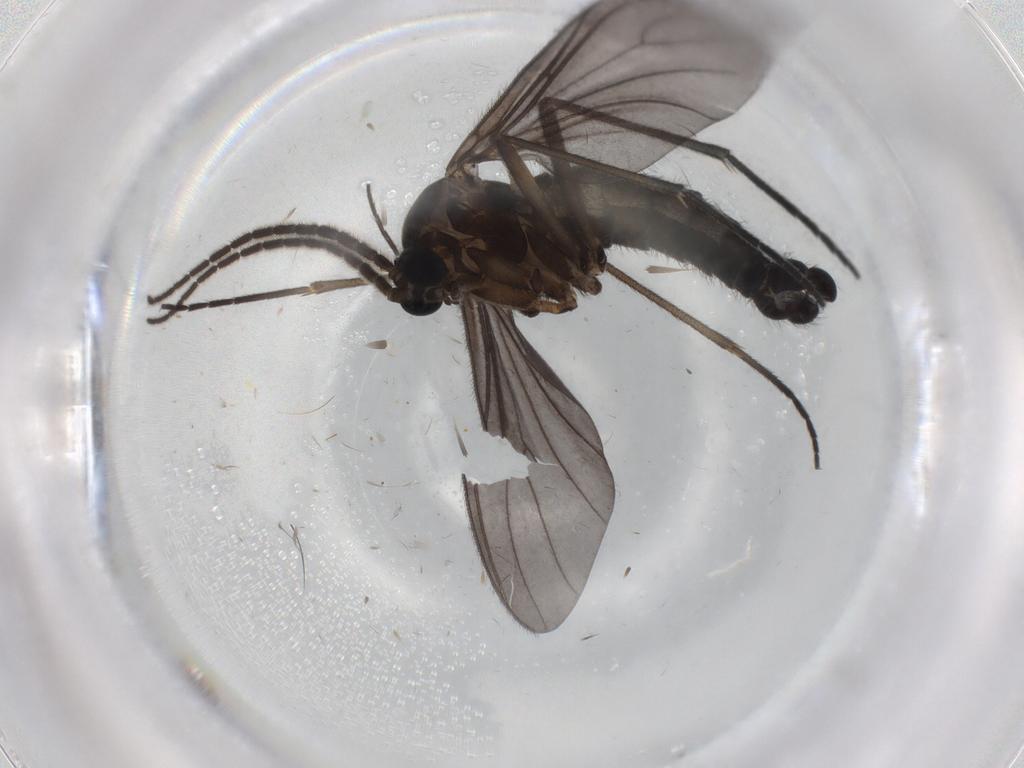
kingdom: Animalia
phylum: Arthropoda
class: Insecta
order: Diptera
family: Sciaridae
